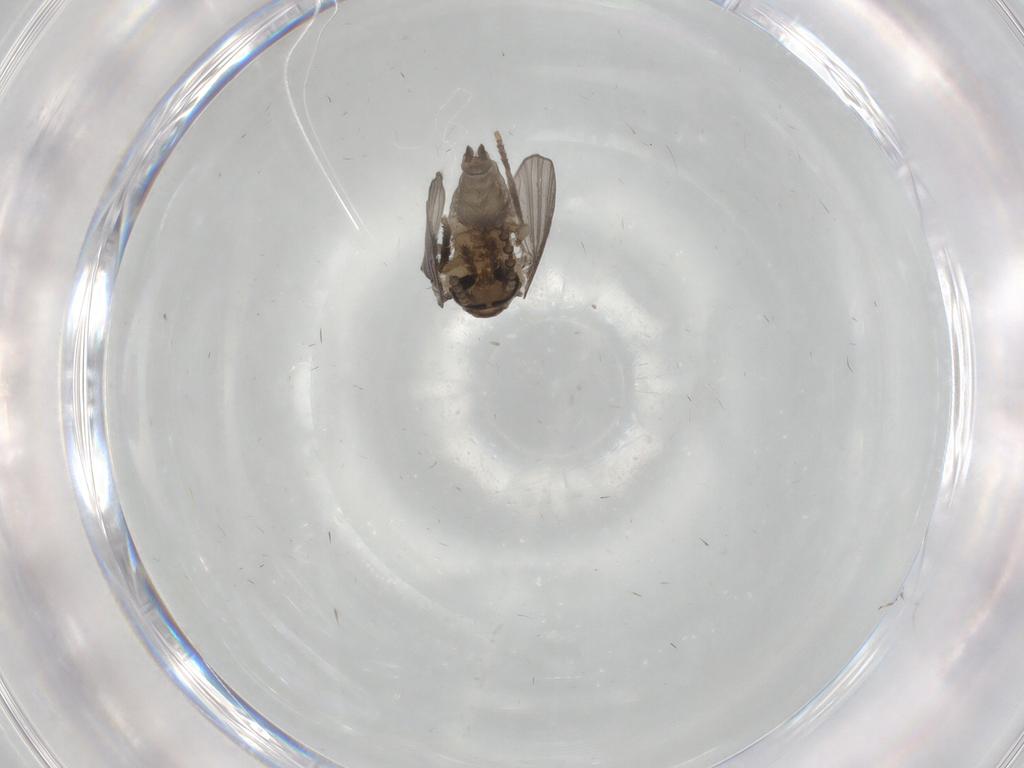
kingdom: Animalia
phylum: Arthropoda
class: Insecta
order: Diptera
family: Psychodidae
